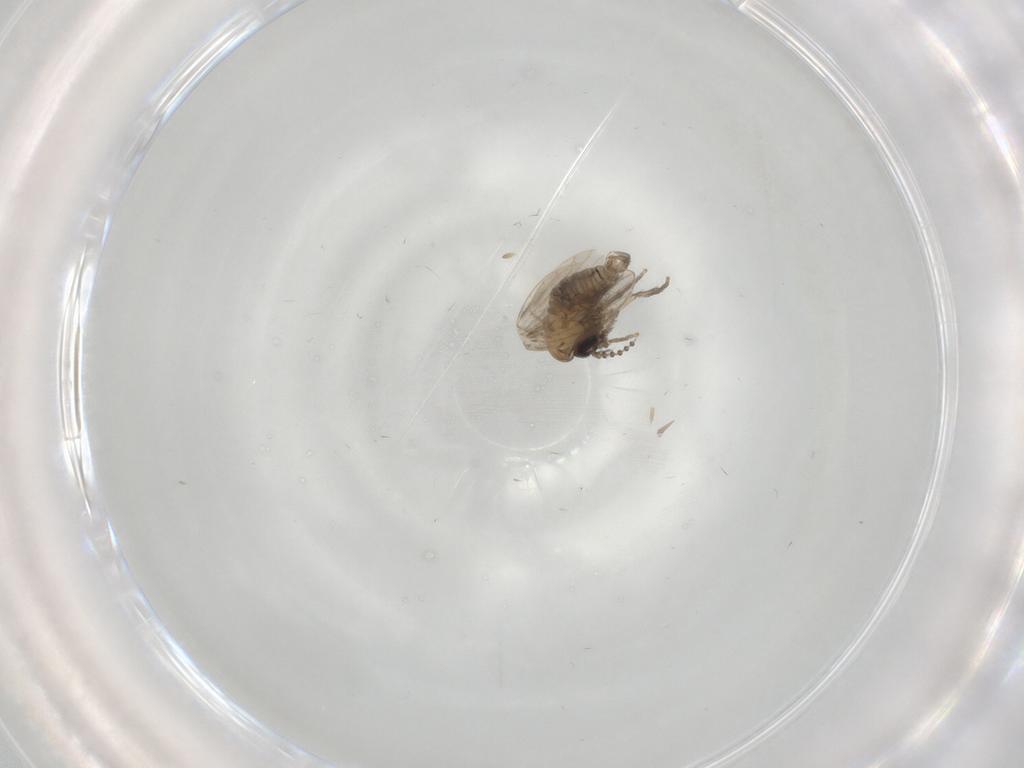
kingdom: Animalia
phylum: Arthropoda
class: Insecta
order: Diptera
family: Psychodidae
